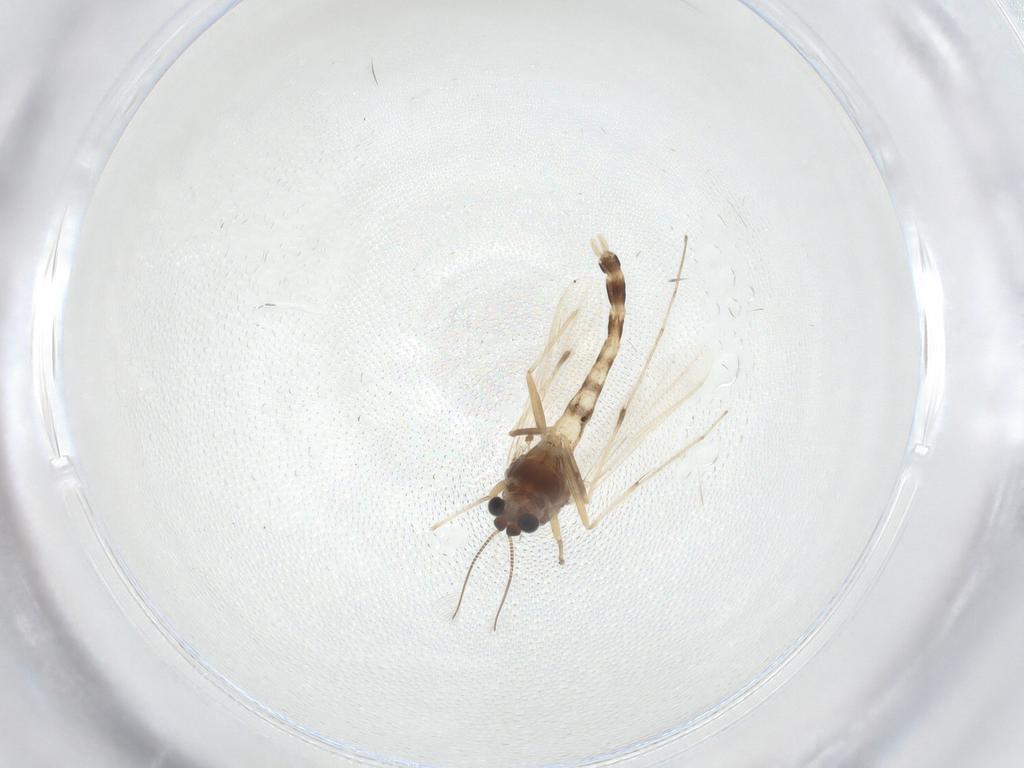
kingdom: Animalia
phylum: Arthropoda
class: Insecta
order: Diptera
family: Chironomidae
